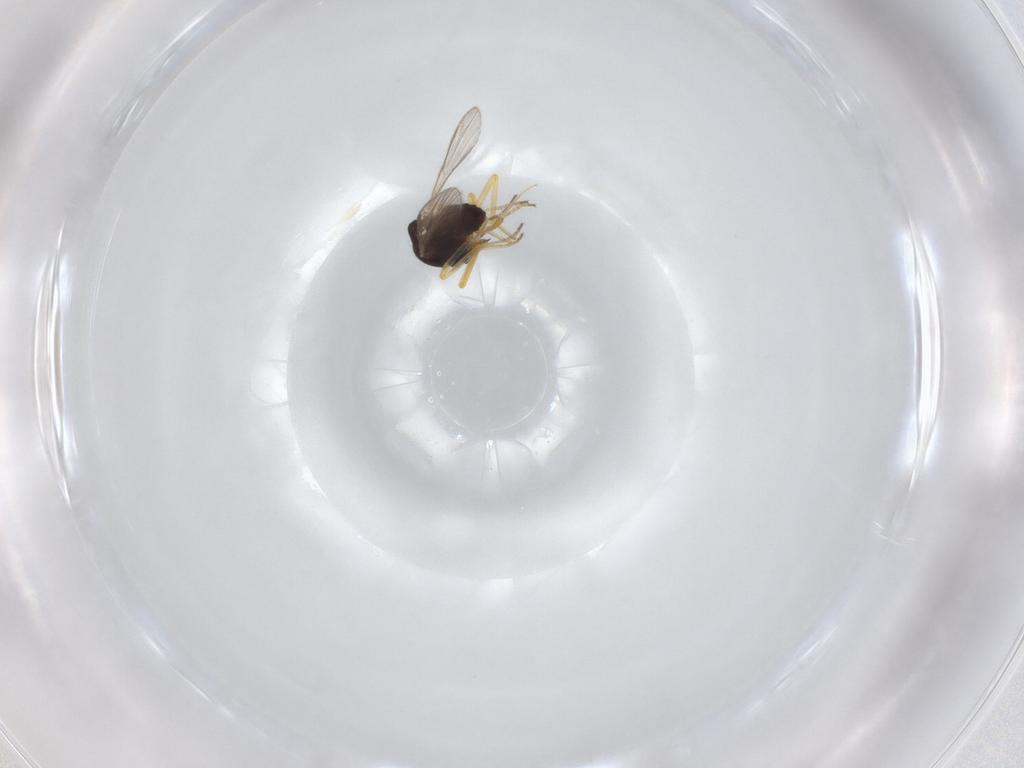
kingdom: Animalia
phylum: Arthropoda
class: Insecta
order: Diptera
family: Ceratopogonidae
